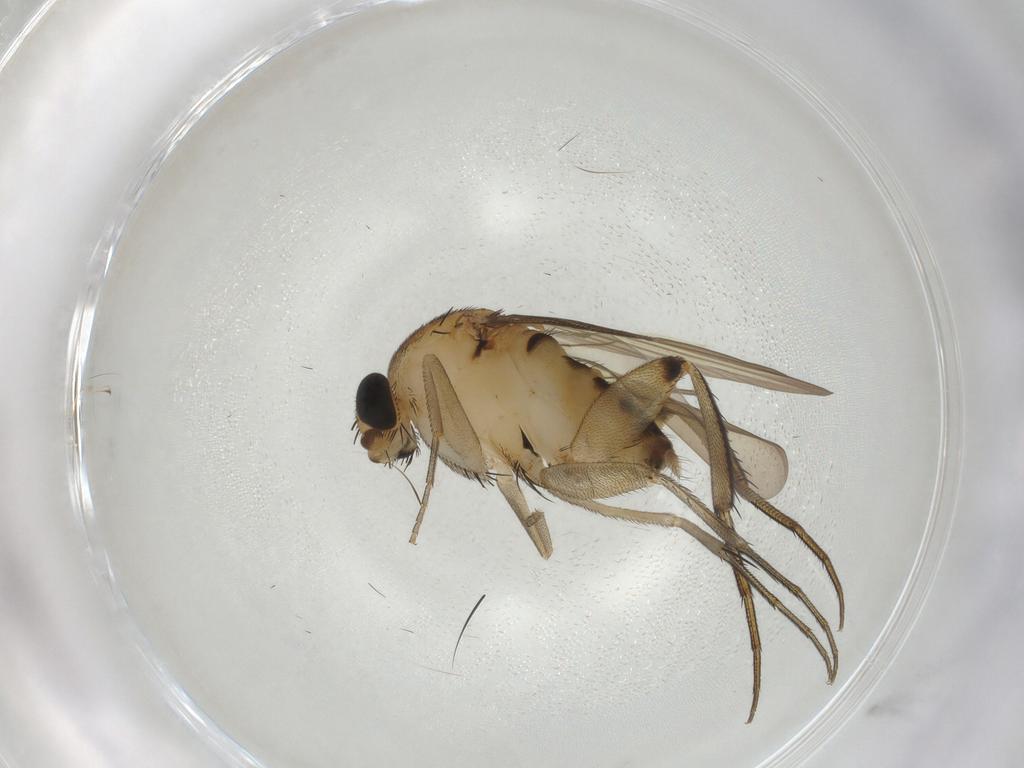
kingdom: Animalia
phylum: Arthropoda
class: Insecta
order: Diptera
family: Phoridae
